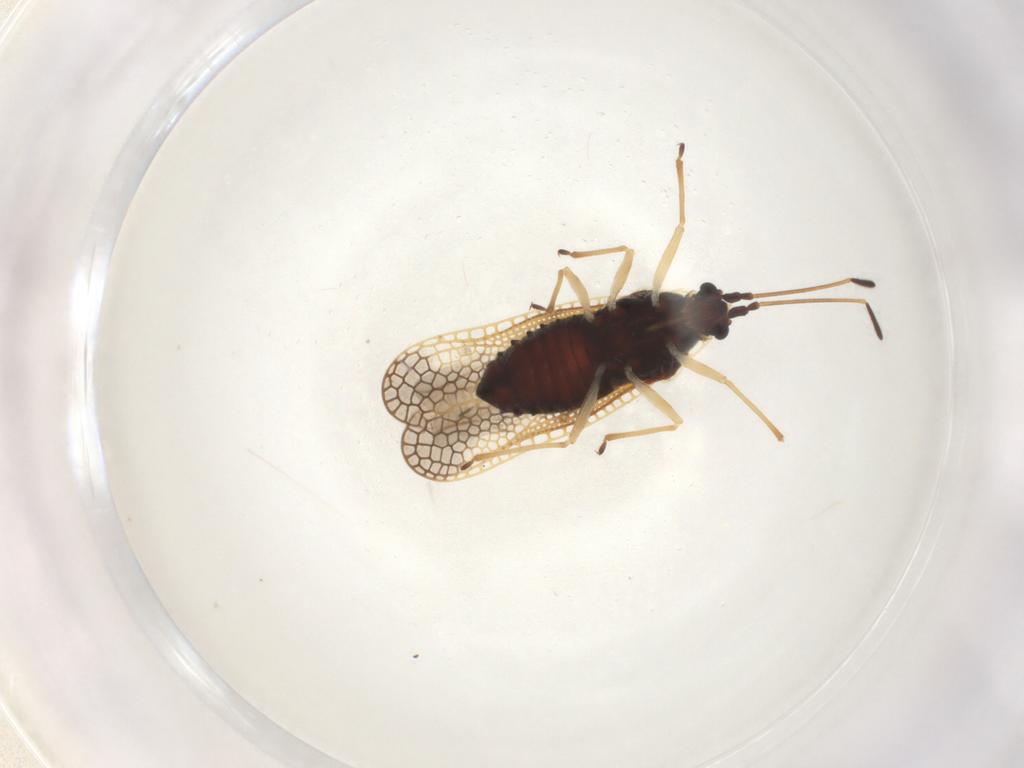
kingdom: Animalia
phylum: Arthropoda
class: Insecta
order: Hemiptera
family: Tingidae
